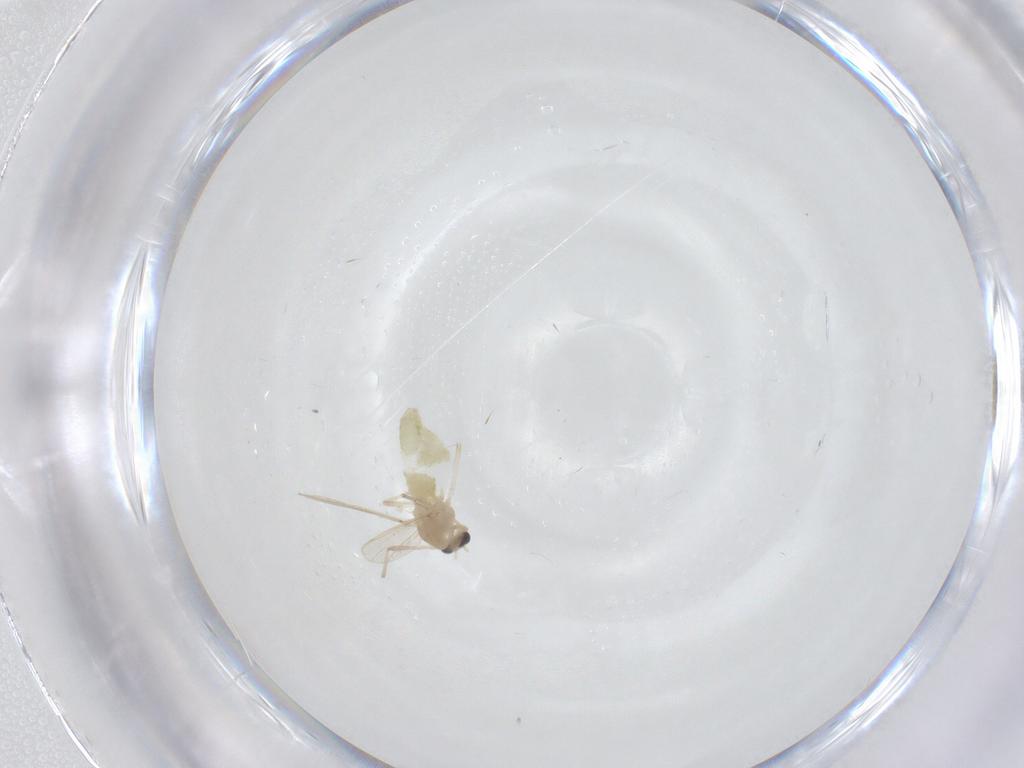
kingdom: Animalia
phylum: Arthropoda
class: Insecta
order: Diptera
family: Chironomidae
